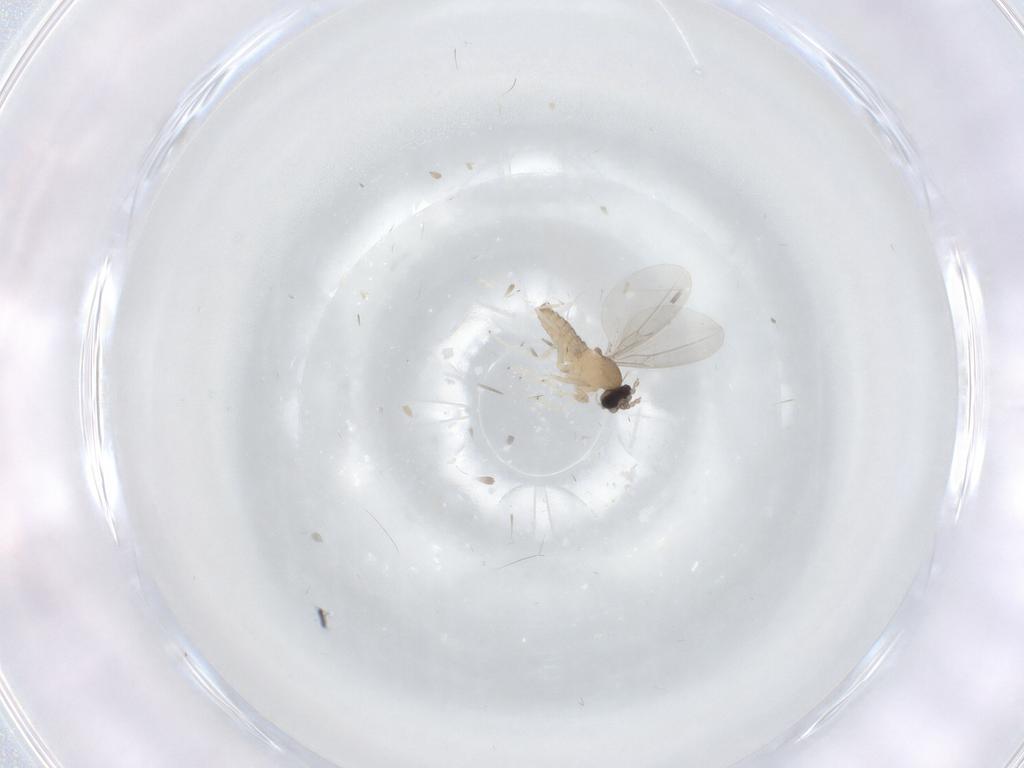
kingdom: Animalia
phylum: Arthropoda
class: Insecta
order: Diptera
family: Cecidomyiidae
